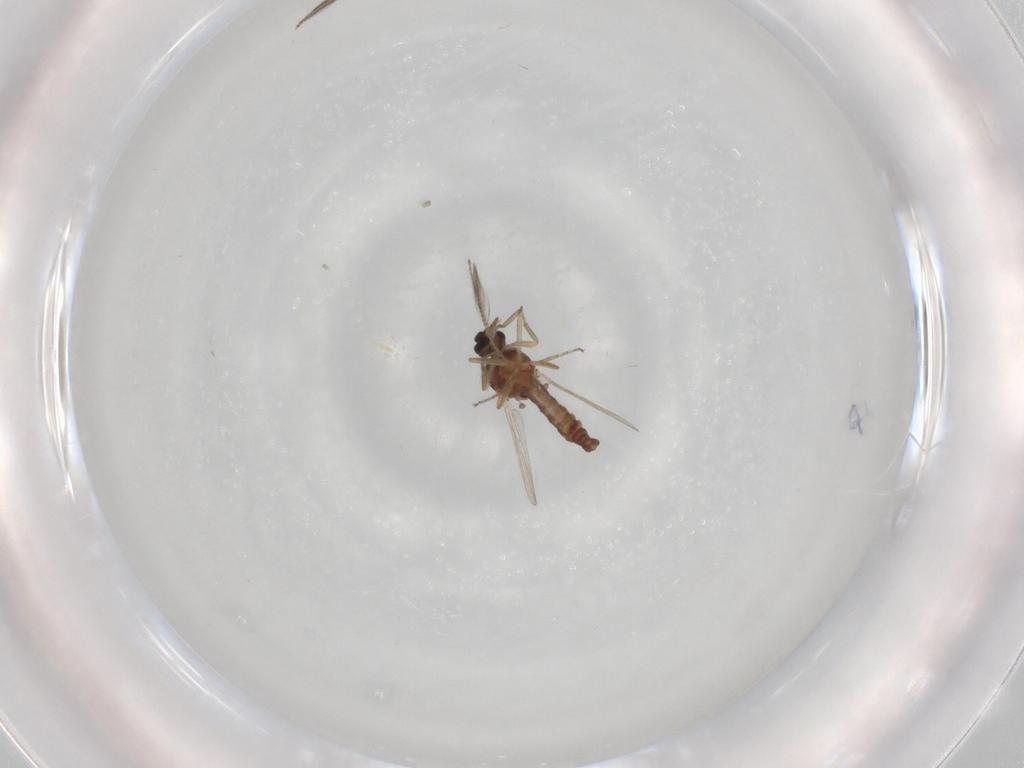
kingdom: Animalia
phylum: Arthropoda
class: Insecta
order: Diptera
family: Ceratopogonidae
